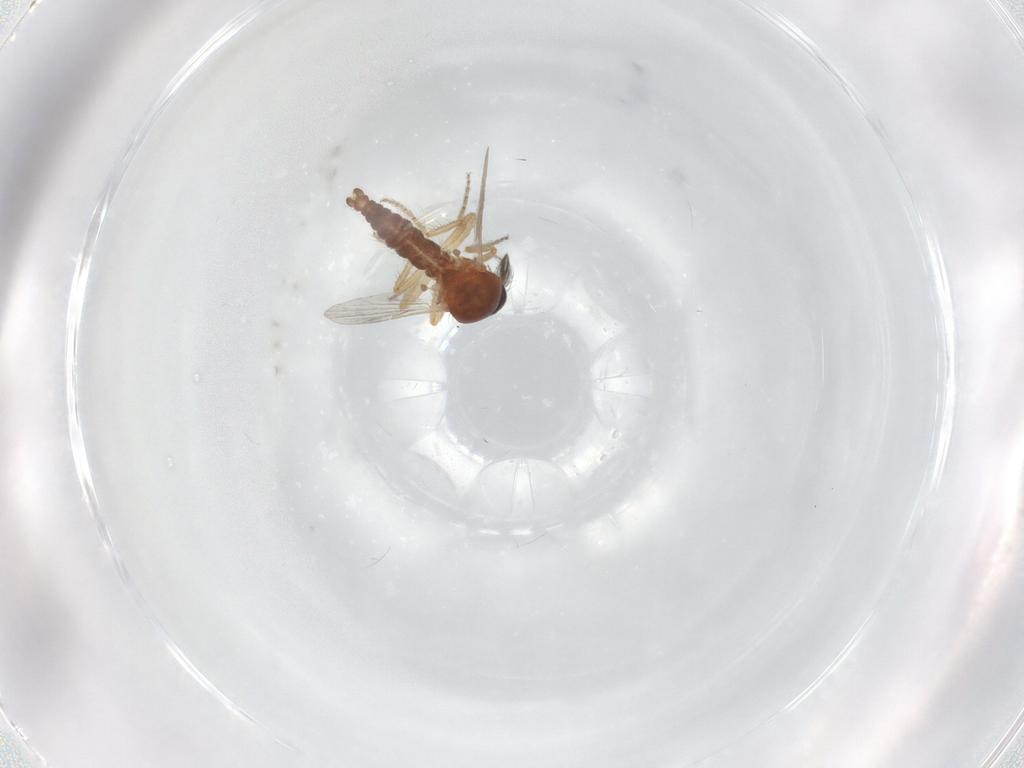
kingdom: Animalia
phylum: Arthropoda
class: Insecta
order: Diptera
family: Ceratopogonidae
